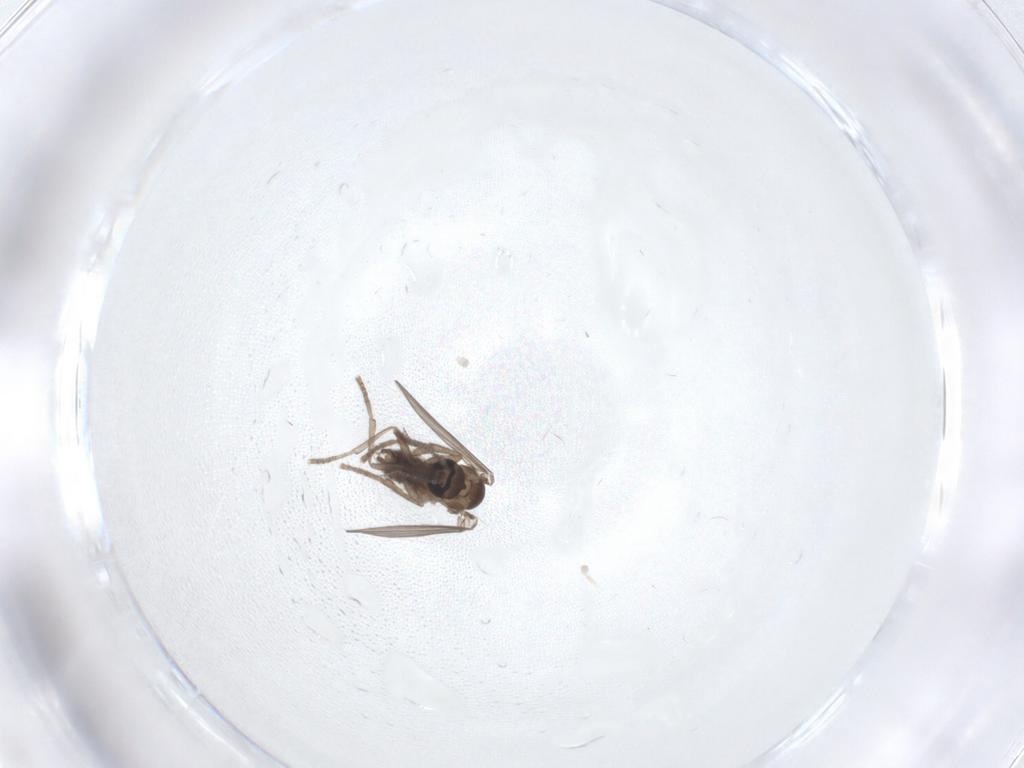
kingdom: Animalia
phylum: Arthropoda
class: Insecta
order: Diptera
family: Psychodidae
